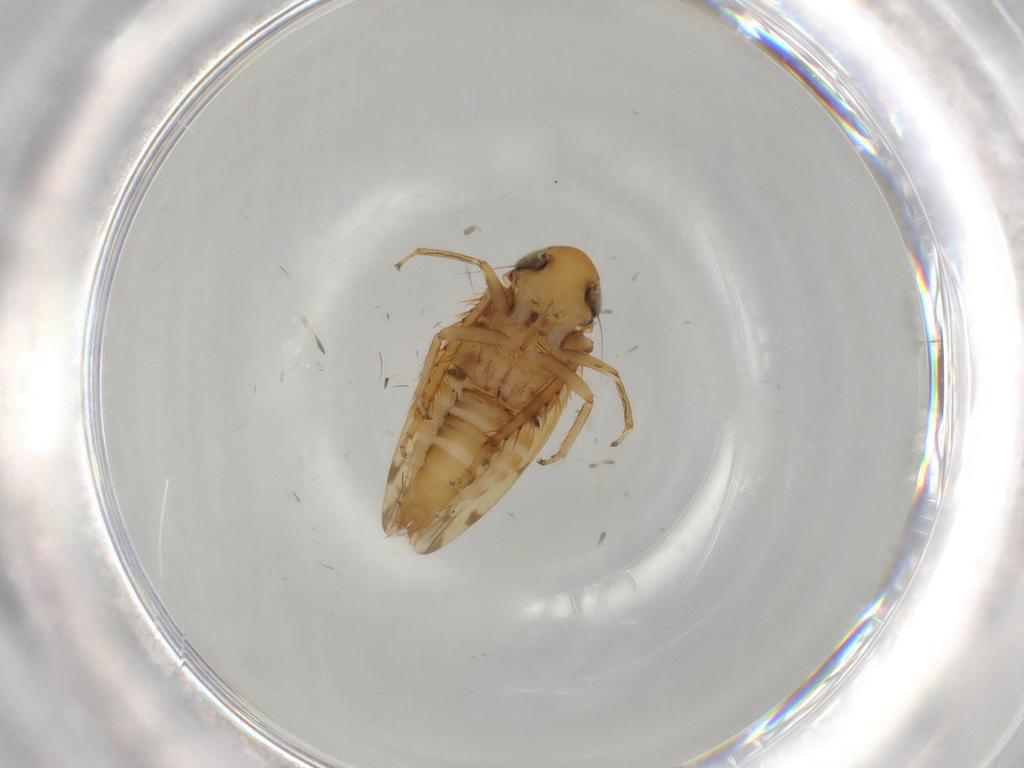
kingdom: Animalia
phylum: Arthropoda
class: Insecta
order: Hemiptera
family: Cicadellidae
